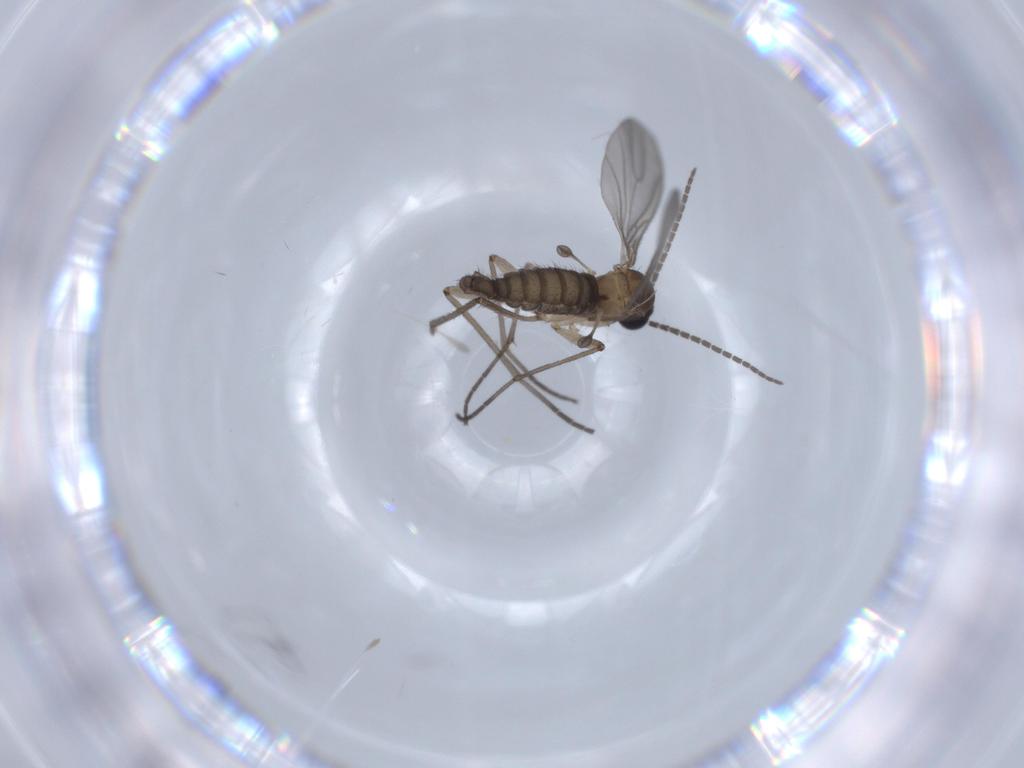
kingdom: Animalia
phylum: Arthropoda
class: Insecta
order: Diptera
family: Sciaridae
